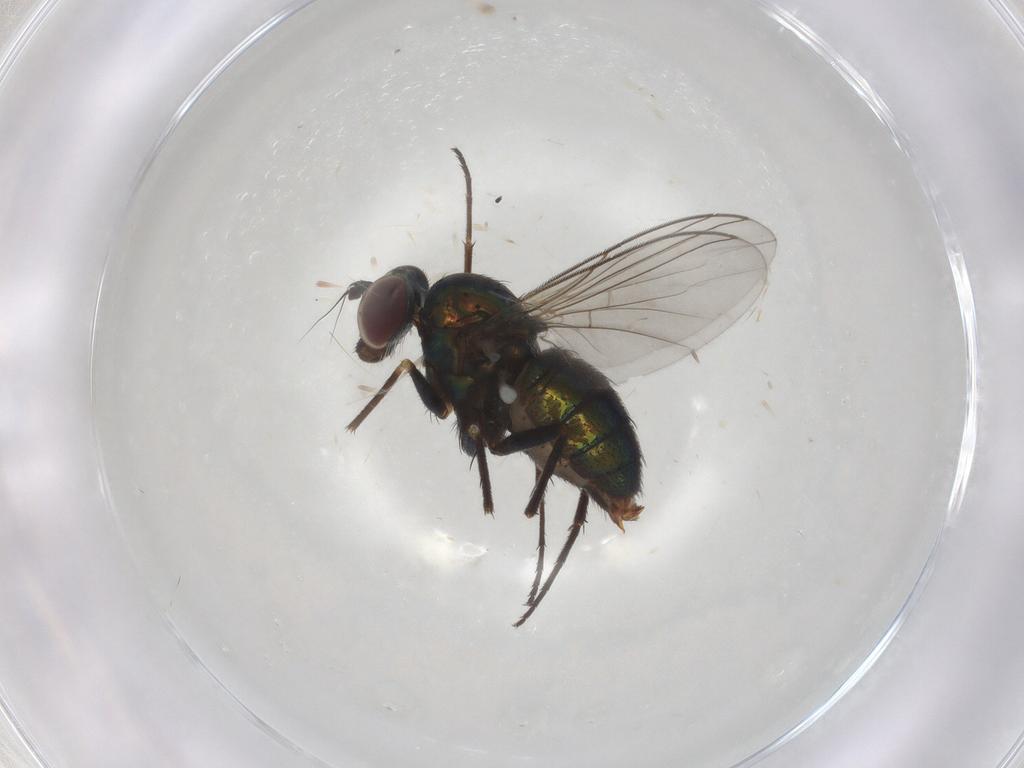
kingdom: Animalia
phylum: Arthropoda
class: Insecta
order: Diptera
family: Dolichopodidae
